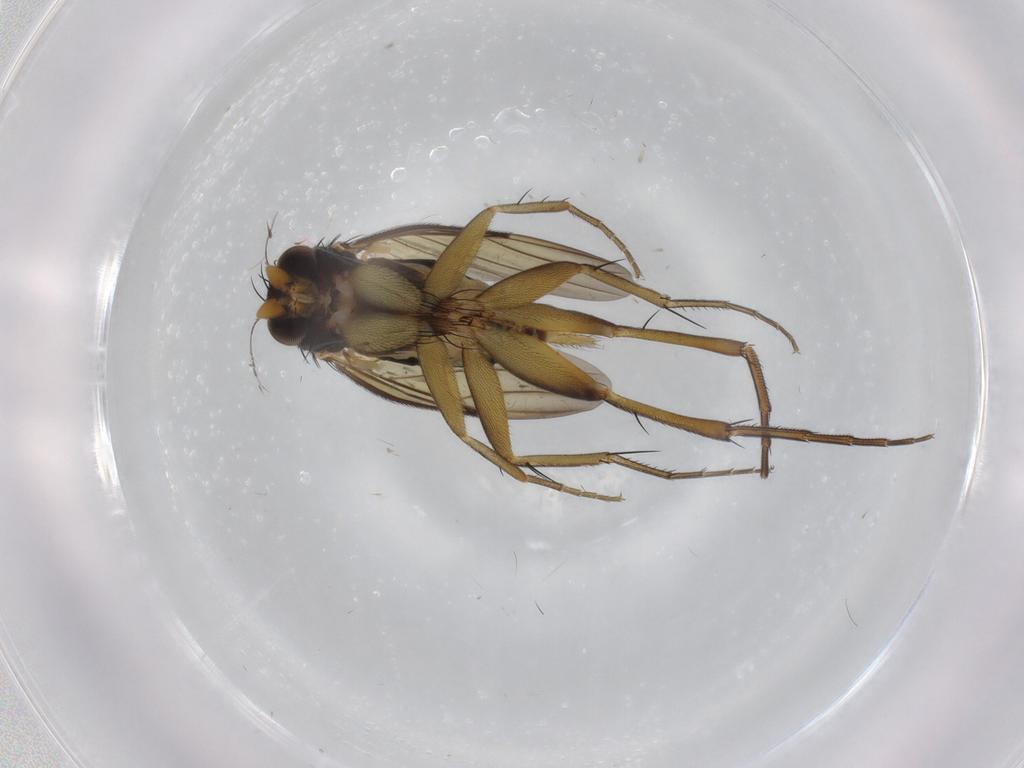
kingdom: Animalia
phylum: Arthropoda
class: Insecta
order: Diptera
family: Phoridae
